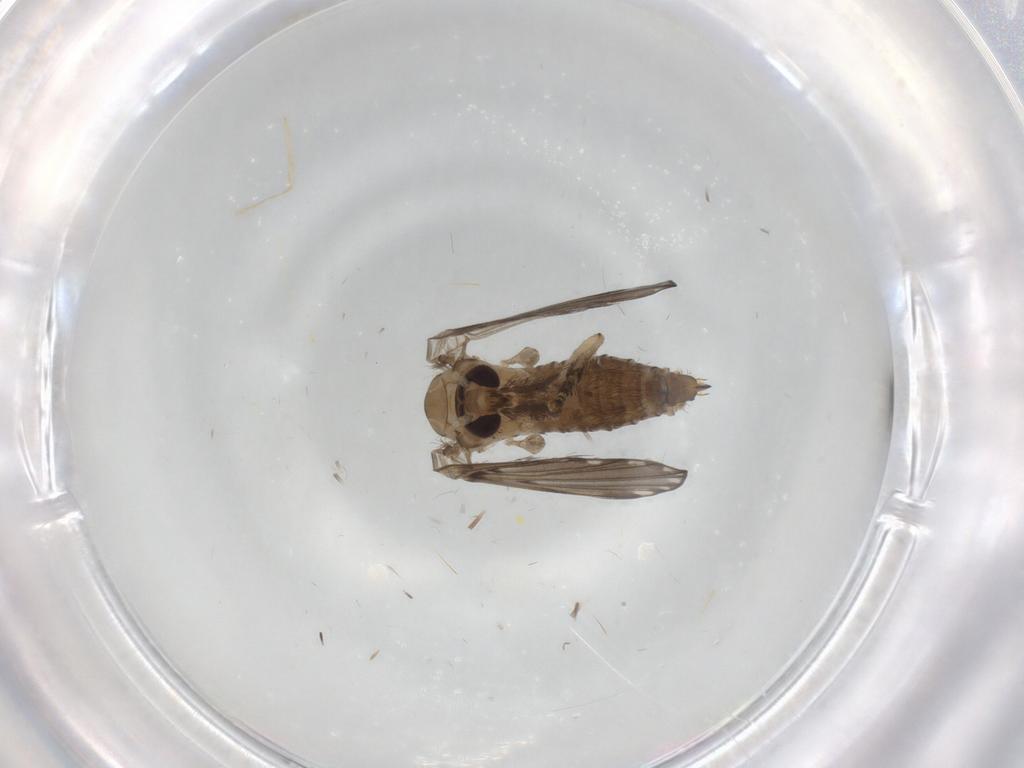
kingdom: Animalia
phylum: Arthropoda
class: Insecta
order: Diptera
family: Psychodidae
